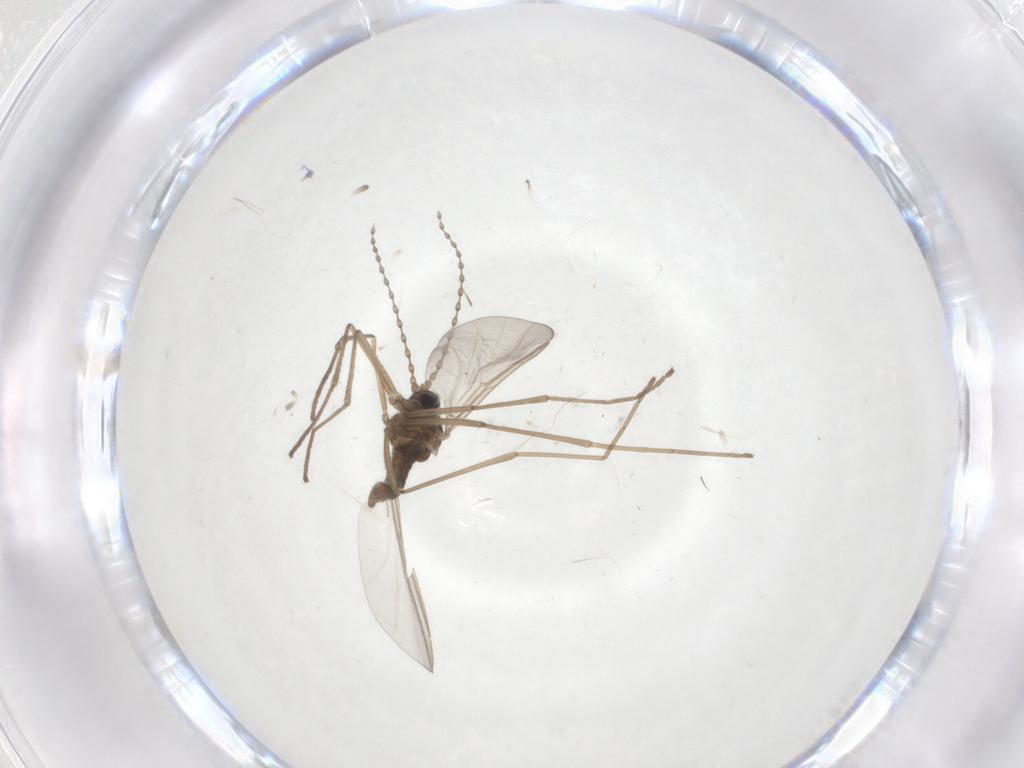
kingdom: Animalia
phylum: Arthropoda
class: Insecta
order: Diptera
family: Cecidomyiidae
